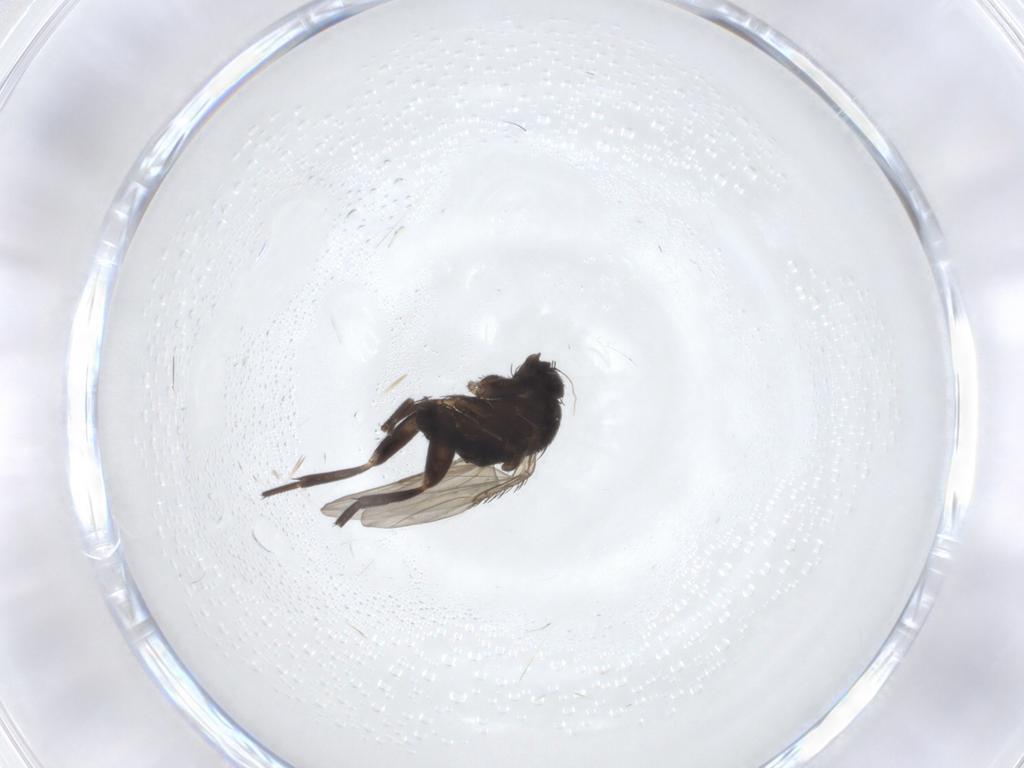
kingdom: Animalia
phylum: Arthropoda
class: Insecta
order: Diptera
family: Phoridae
